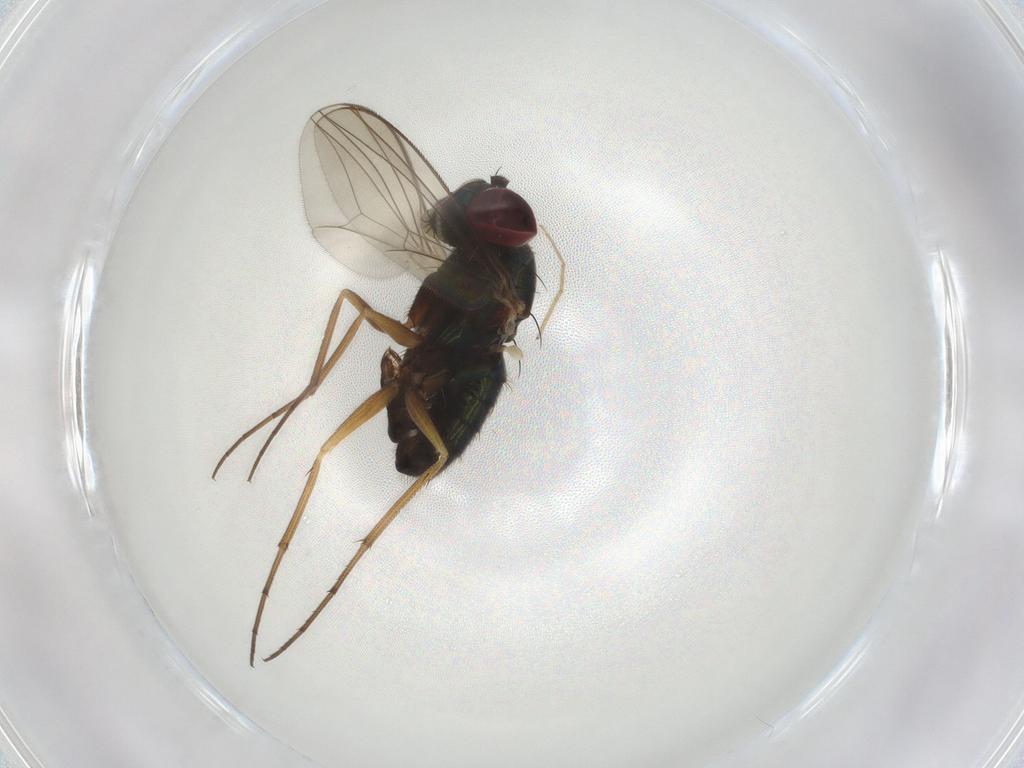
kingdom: Animalia
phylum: Arthropoda
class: Insecta
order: Diptera
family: Dolichopodidae
